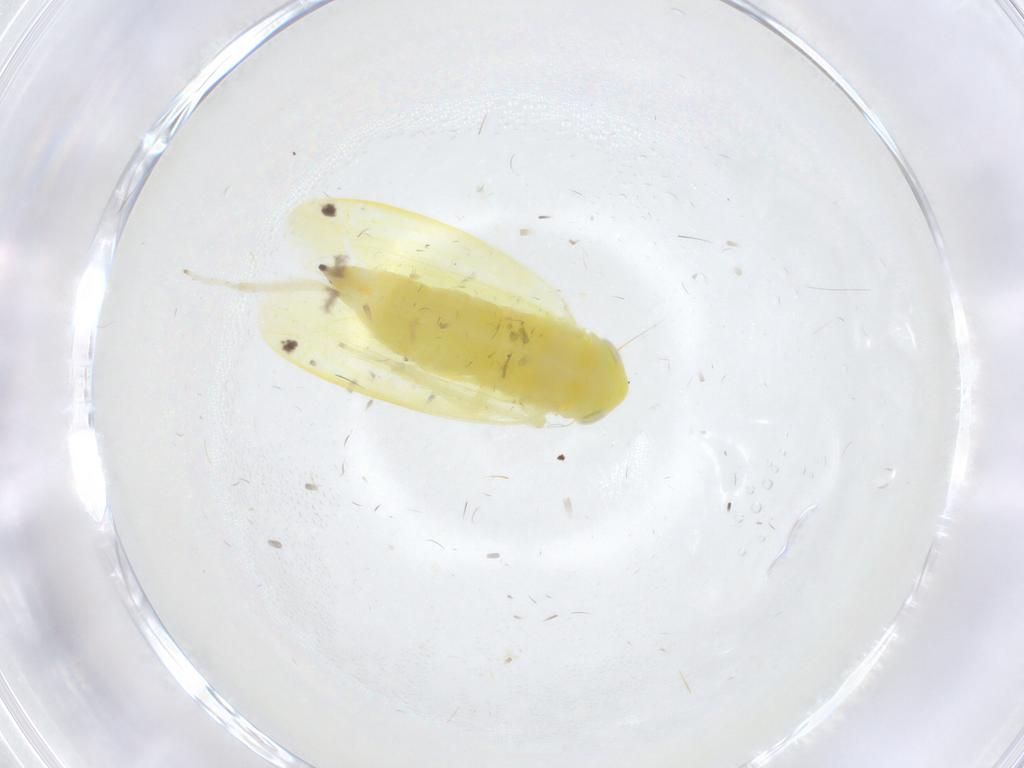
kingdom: Animalia
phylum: Arthropoda
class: Insecta
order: Hemiptera
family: Cicadellidae
